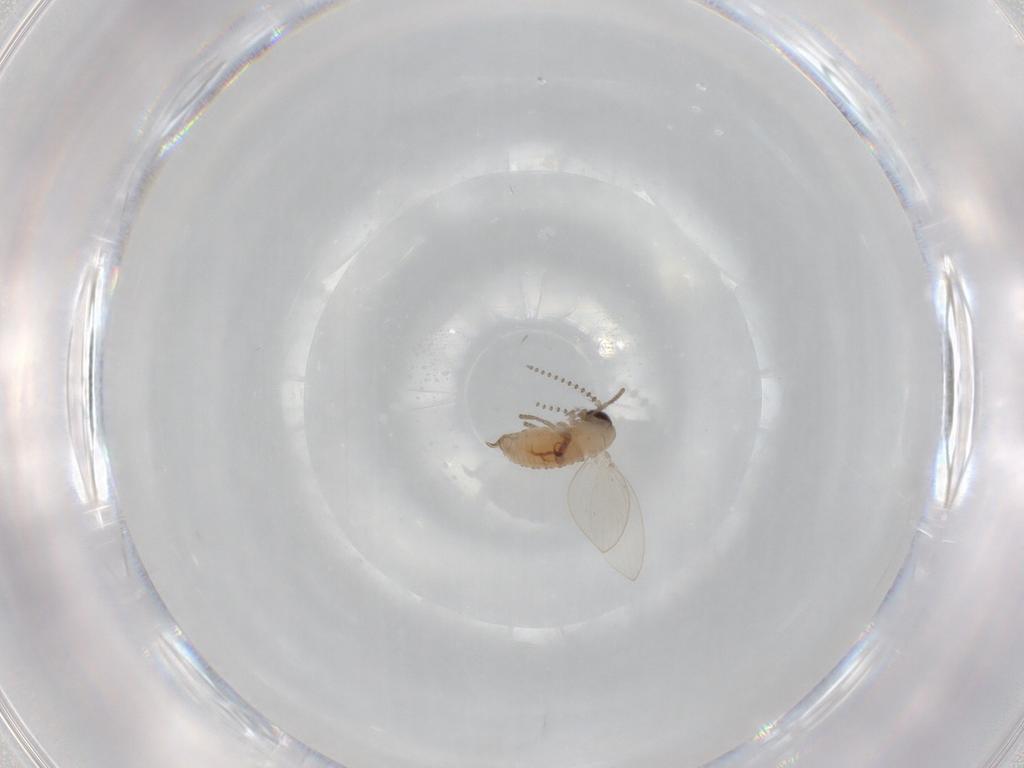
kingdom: Animalia
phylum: Arthropoda
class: Insecta
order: Diptera
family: Psychodidae
